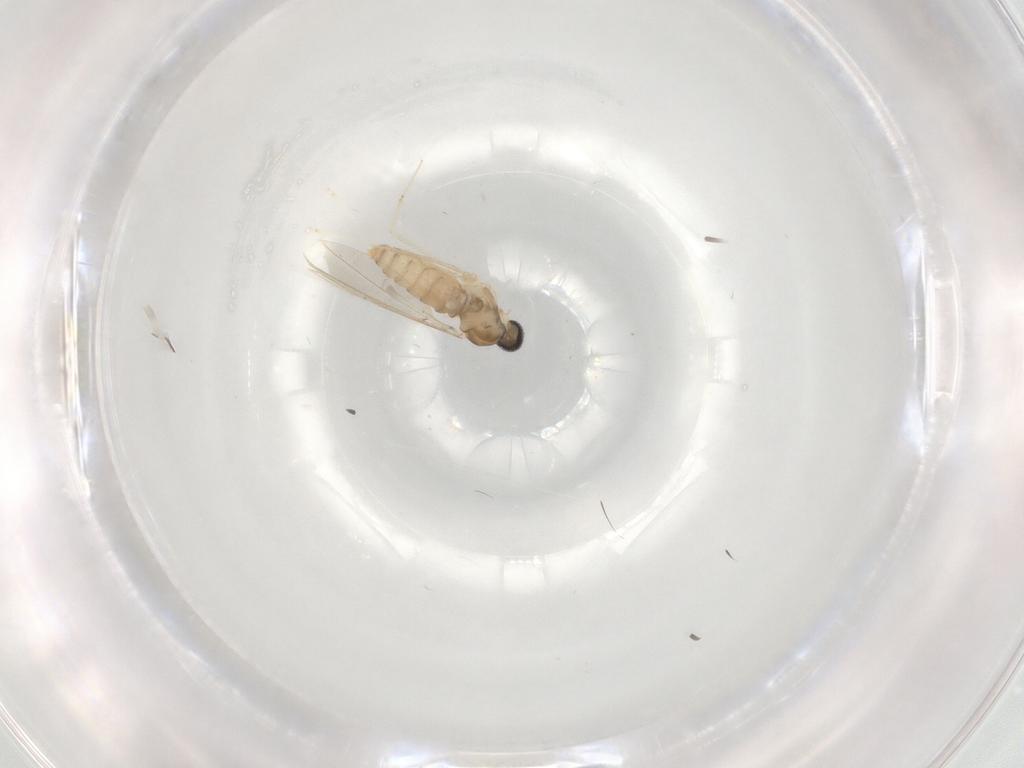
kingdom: Animalia
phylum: Arthropoda
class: Insecta
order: Diptera
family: Cecidomyiidae
